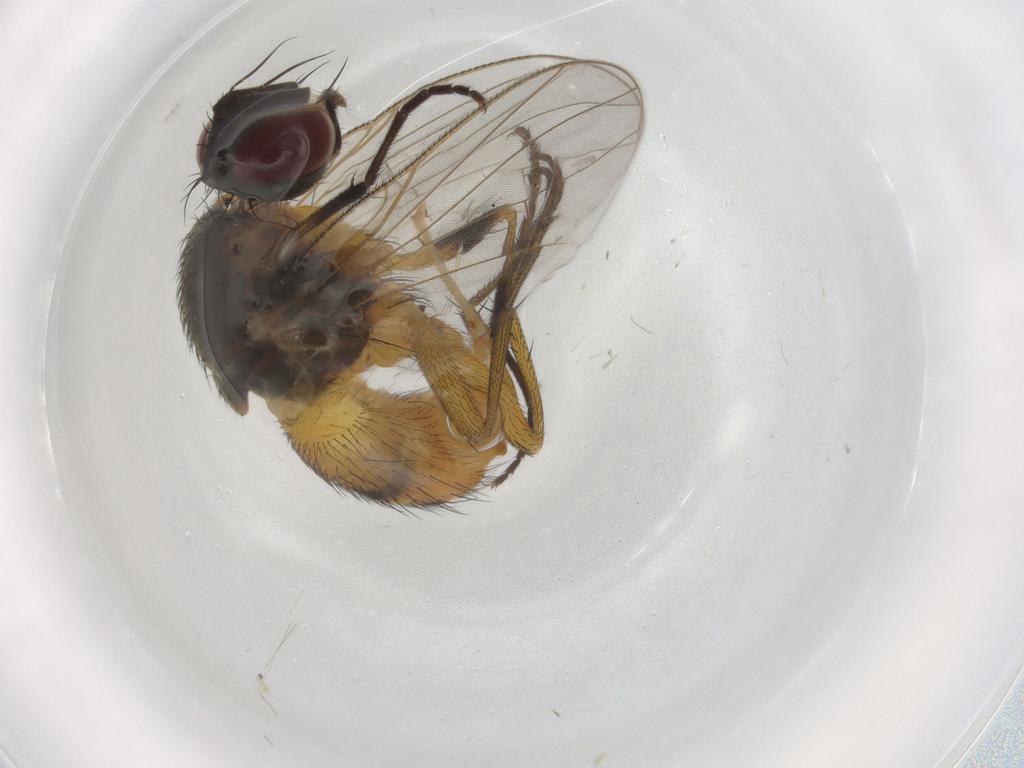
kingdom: Animalia
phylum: Arthropoda
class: Insecta
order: Diptera
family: Muscidae
